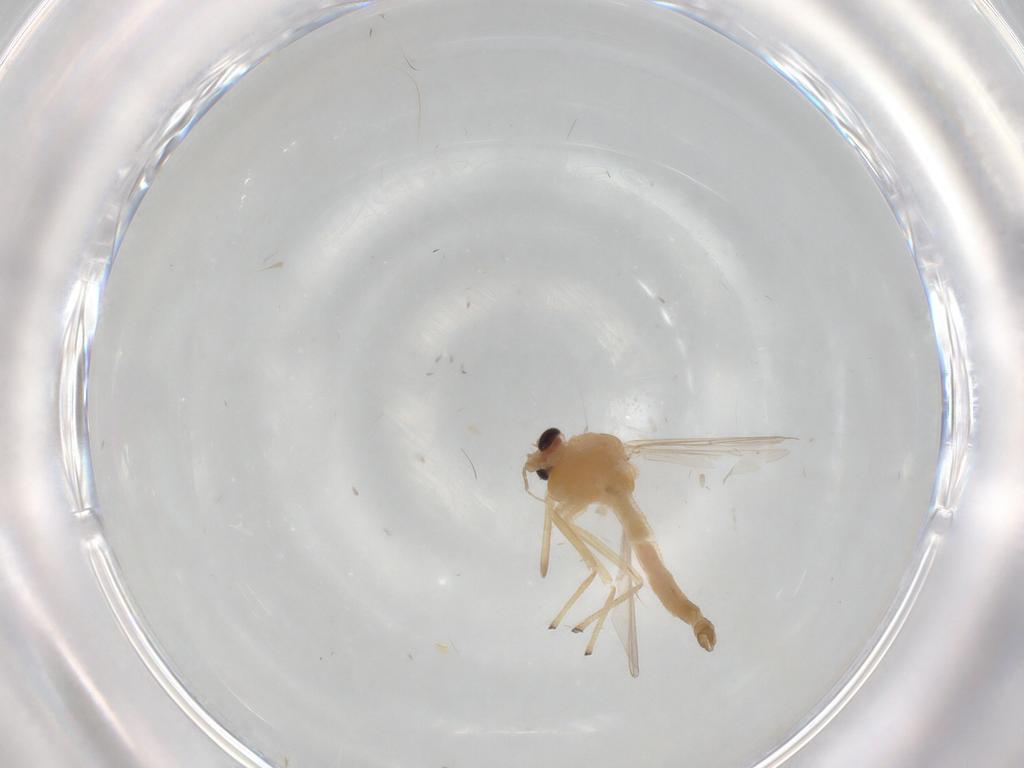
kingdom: Animalia
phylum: Arthropoda
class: Insecta
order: Diptera
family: Chironomidae
